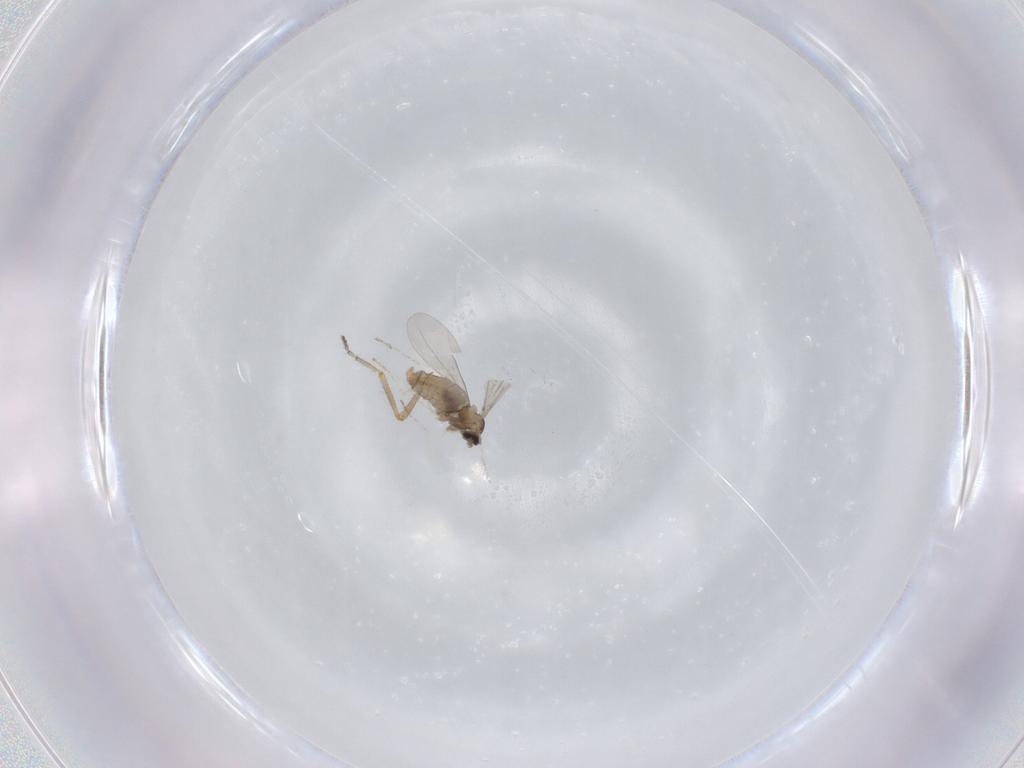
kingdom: Animalia
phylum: Arthropoda
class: Insecta
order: Diptera
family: Ceratopogonidae
